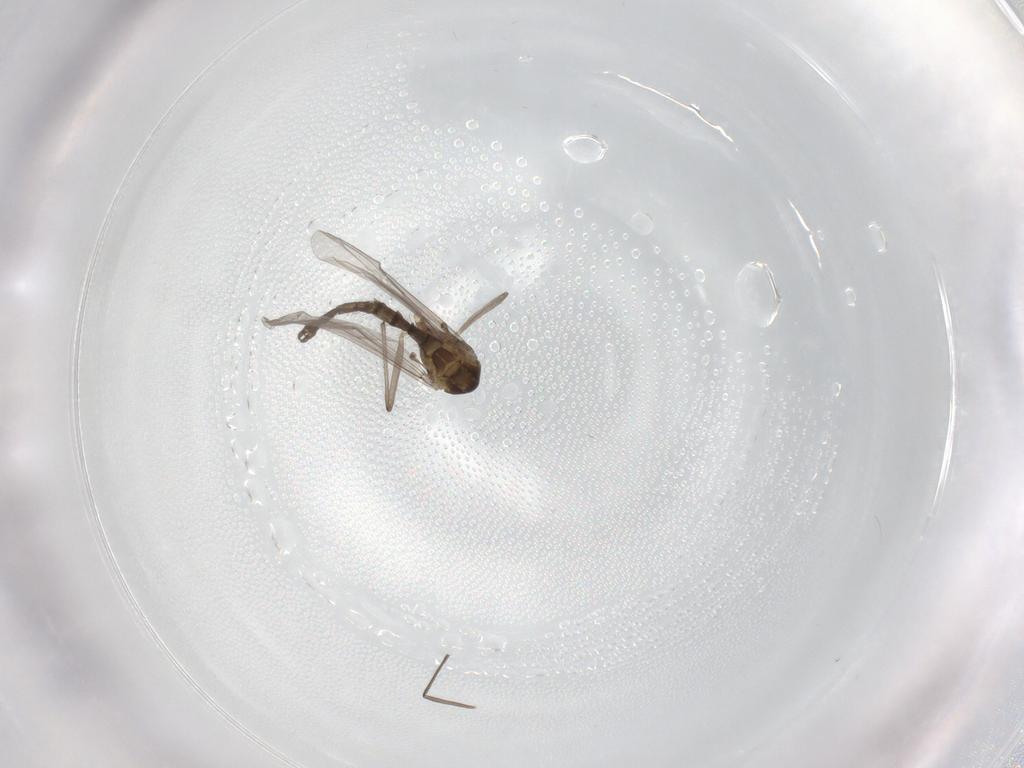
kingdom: Animalia
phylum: Arthropoda
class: Insecta
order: Diptera
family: Chironomidae
